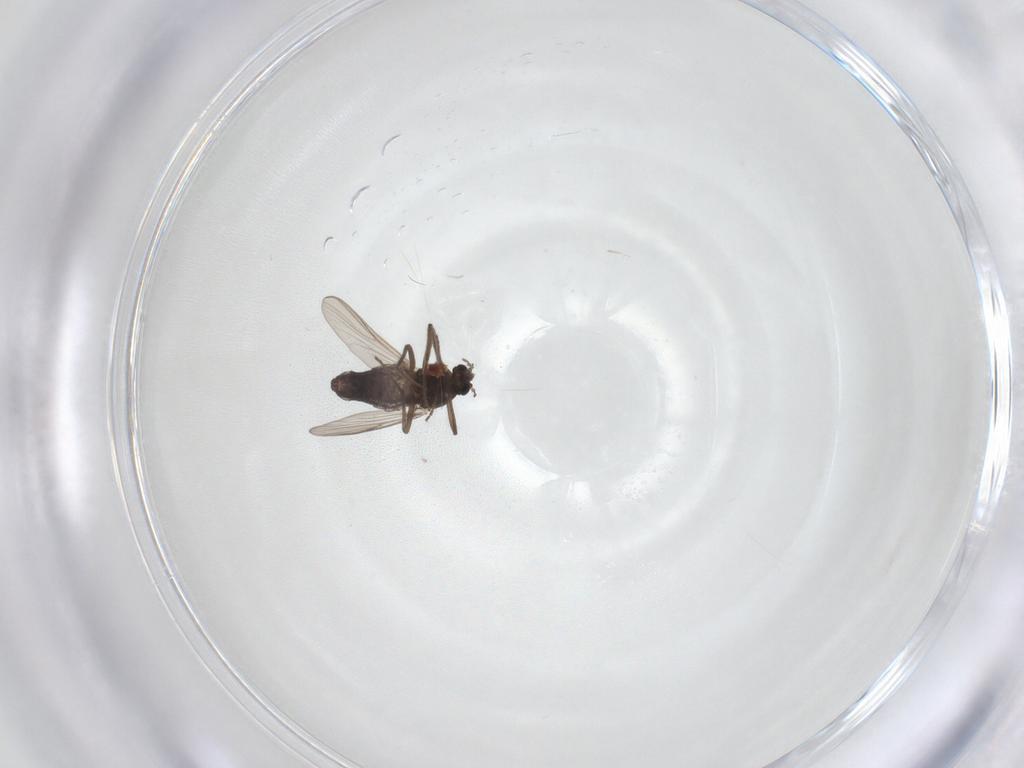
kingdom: Animalia
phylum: Arthropoda
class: Insecta
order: Diptera
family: Chironomidae
